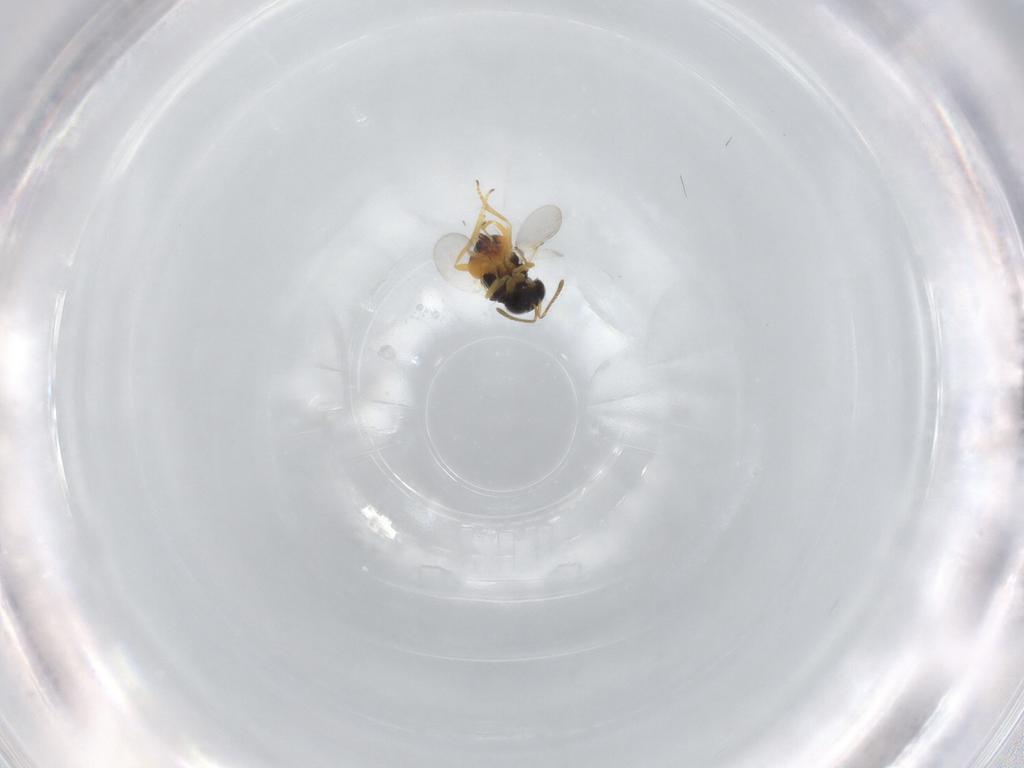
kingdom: Animalia
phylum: Arthropoda
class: Insecta
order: Hymenoptera
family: Encyrtidae
